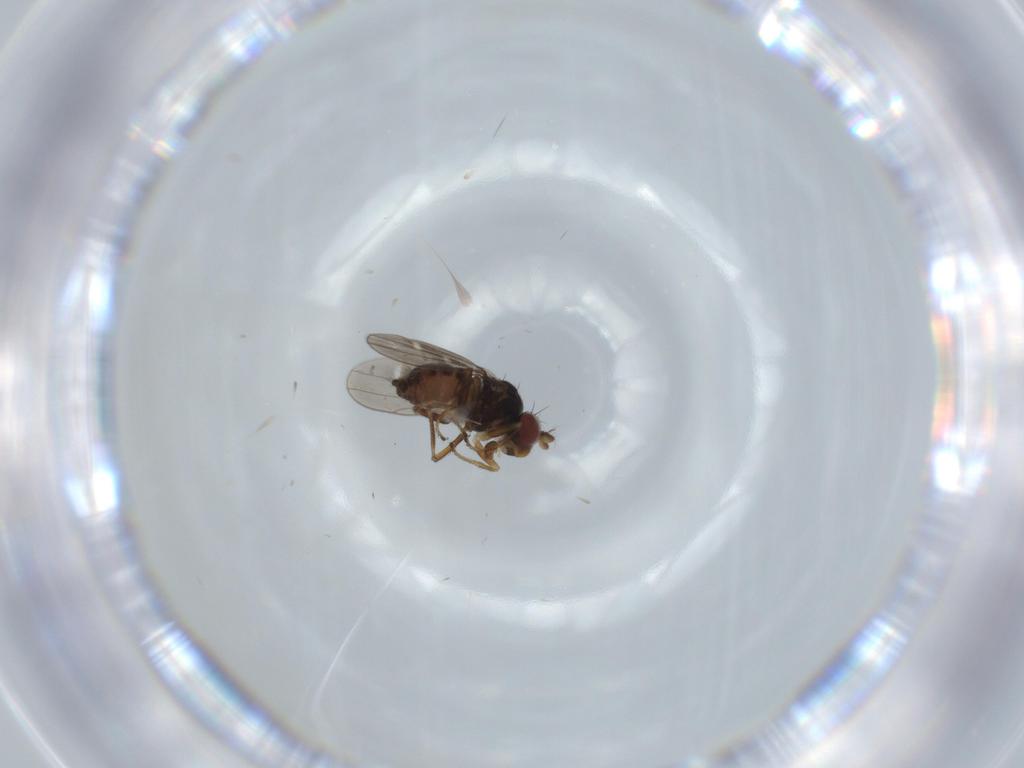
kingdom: Animalia
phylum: Arthropoda
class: Insecta
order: Diptera
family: Ephydridae
